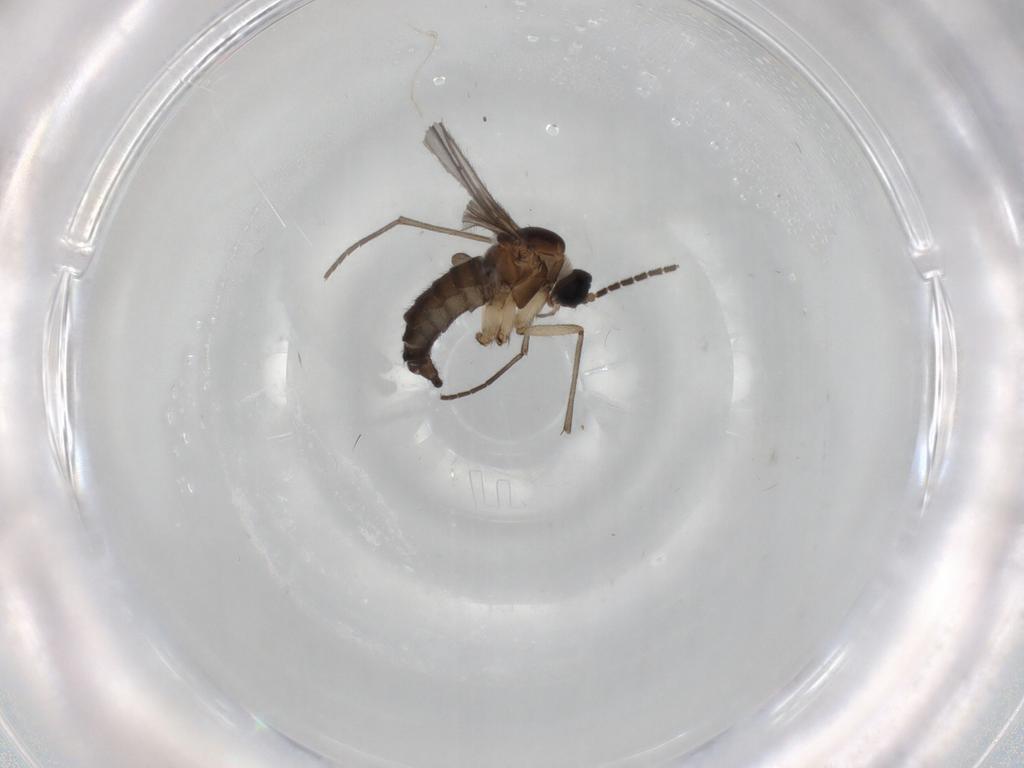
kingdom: Animalia
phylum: Arthropoda
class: Insecta
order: Diptera
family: Sciaridae
